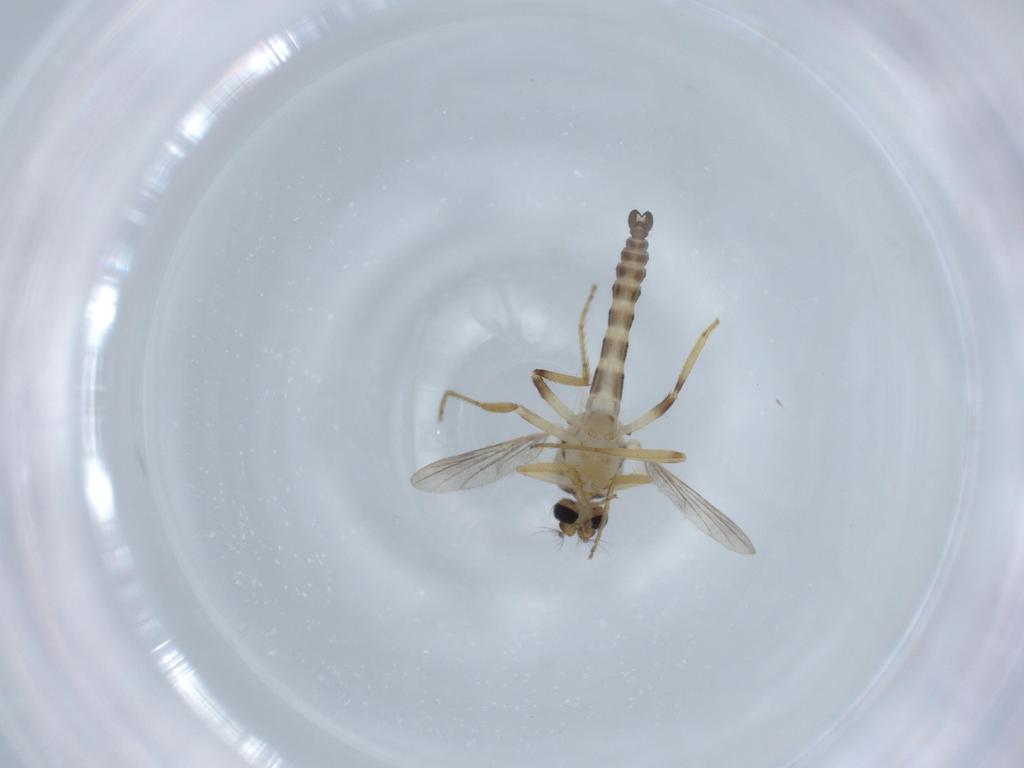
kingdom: Animalia
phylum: Arthropoda
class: Insecta
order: Diptera
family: Ceratopogonidae
